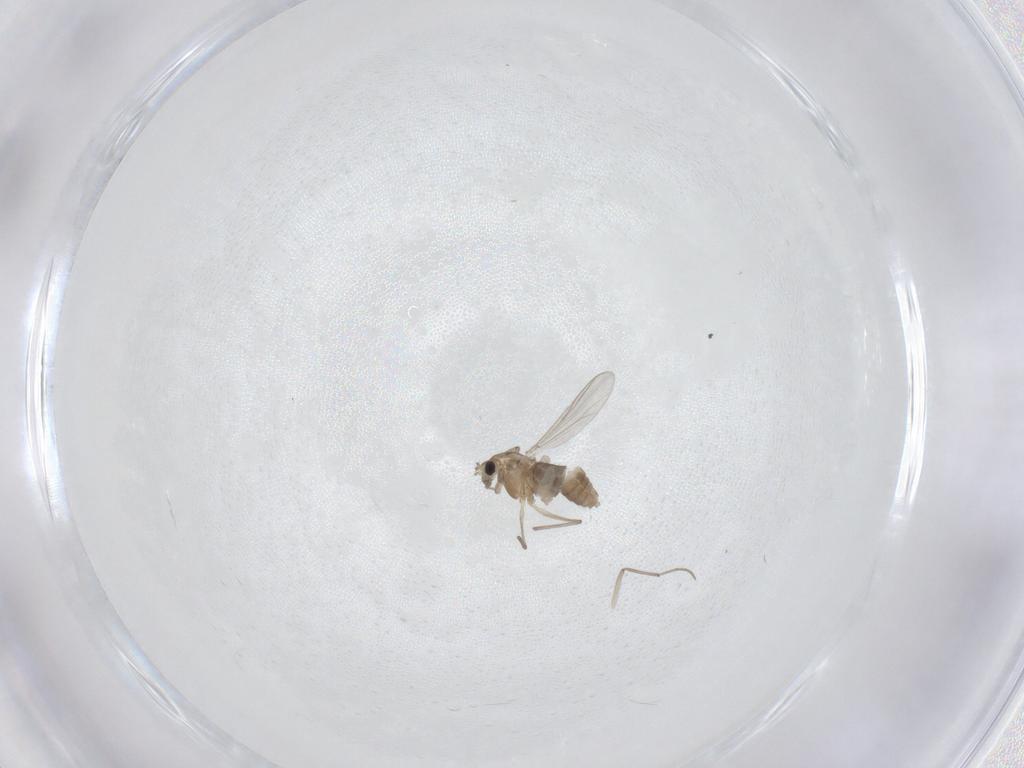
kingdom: Animalia
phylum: Arthropoda
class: Insecta
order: Diptera
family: Chironomidae
